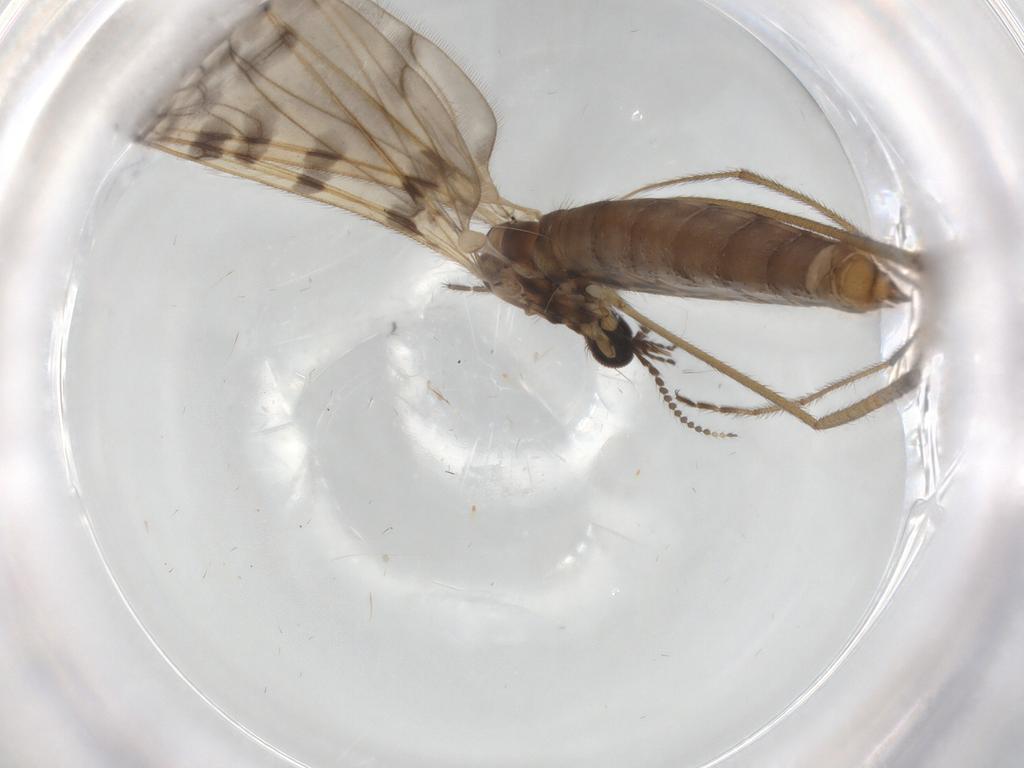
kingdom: Animalia
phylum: Arthropoda
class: Insecta
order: Diptera
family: Limoniidae
